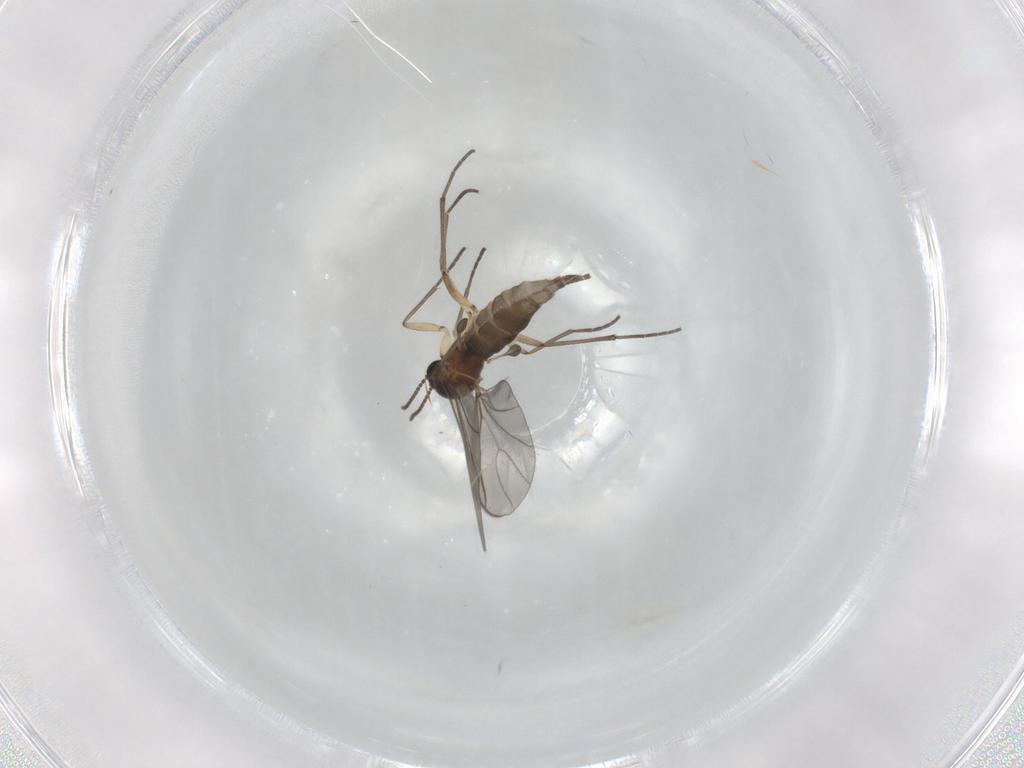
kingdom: Animalia
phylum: Arthropoda
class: Insecta
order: Diptera
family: Sciaridae
